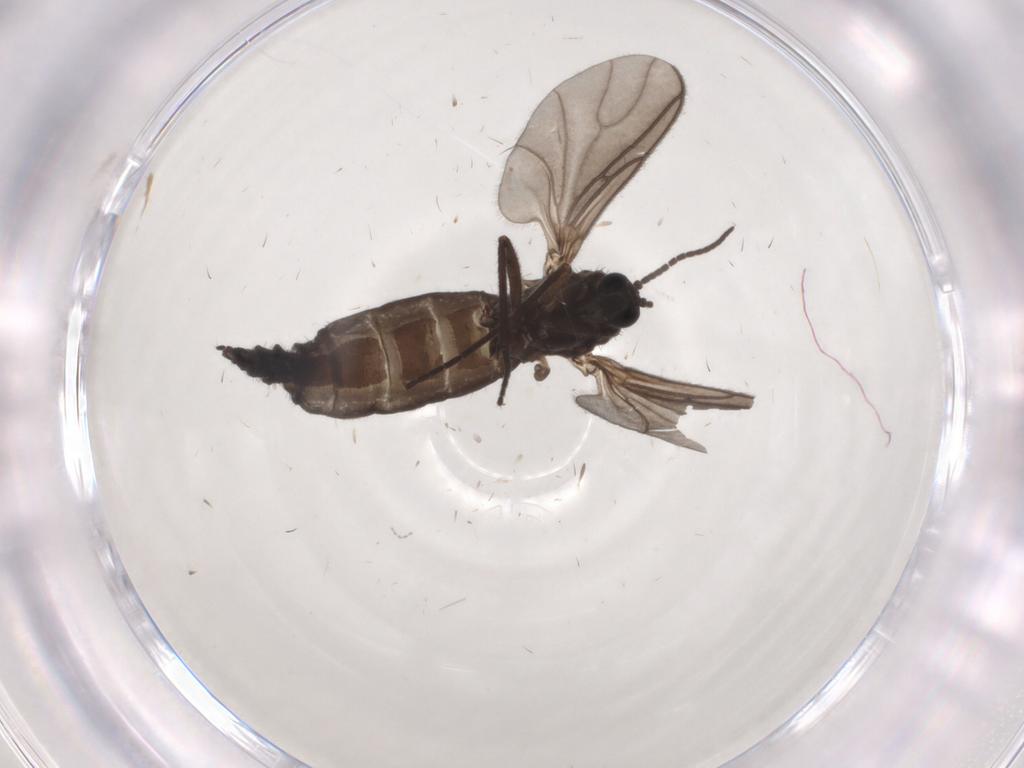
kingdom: Animalia
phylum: Arthropoda
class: Insecta
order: Diptera
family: Sciaridae
